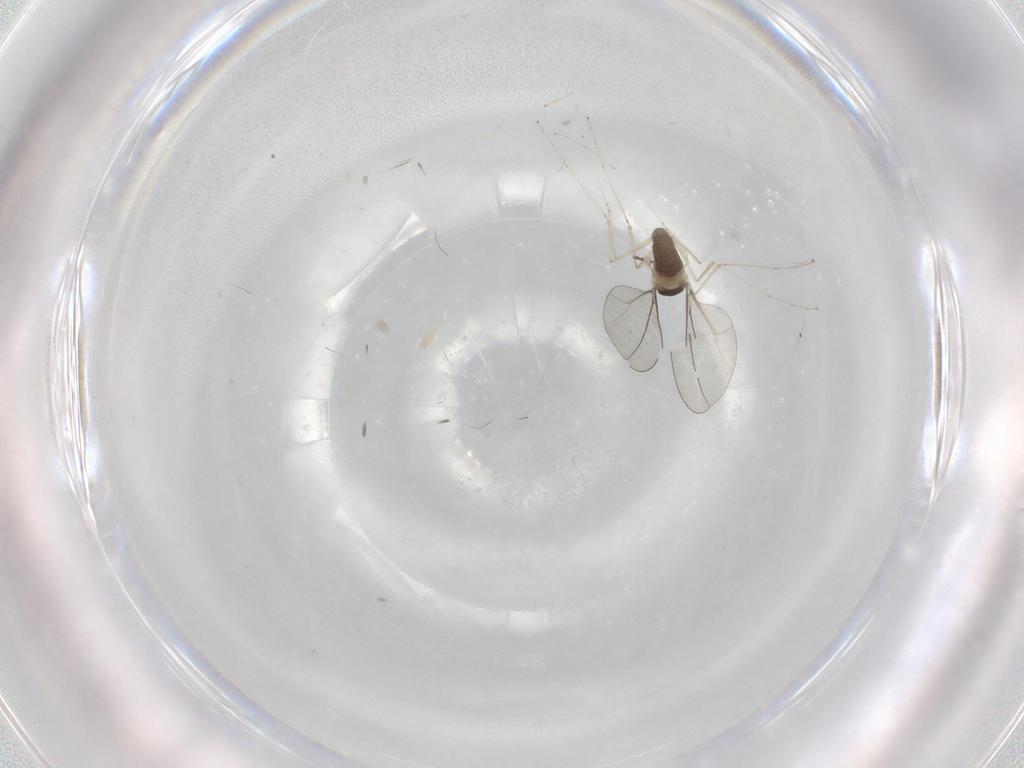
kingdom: Animalia
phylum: Arthropoda
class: Insecta
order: Diptera
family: Cecidomyiidae
